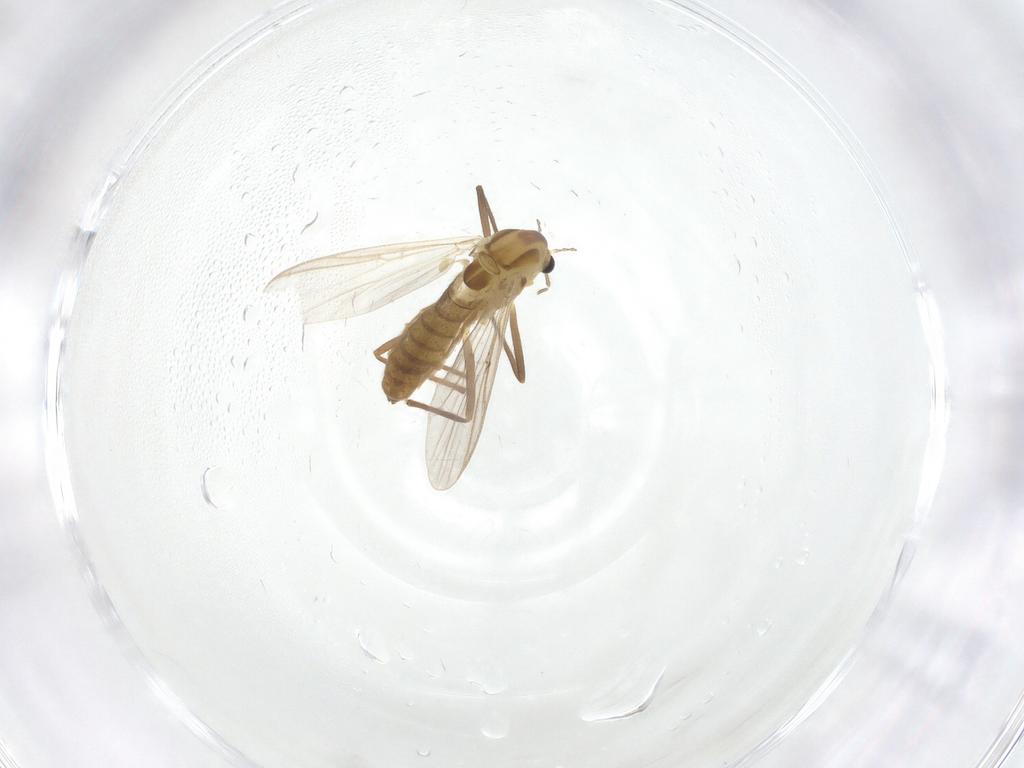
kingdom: Animalia
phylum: Arthropoda
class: Insecta
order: Diptera
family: Chironomidae
